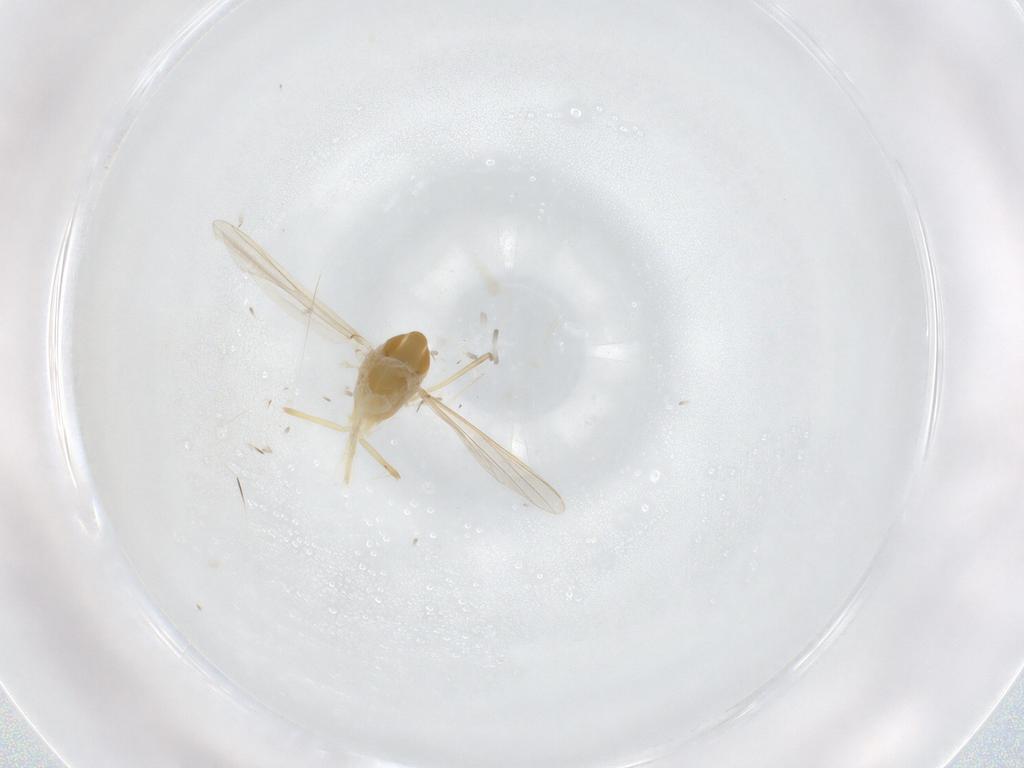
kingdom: Animalia
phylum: Arthropoda
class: Insecta
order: Diptera
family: Chironomidae
